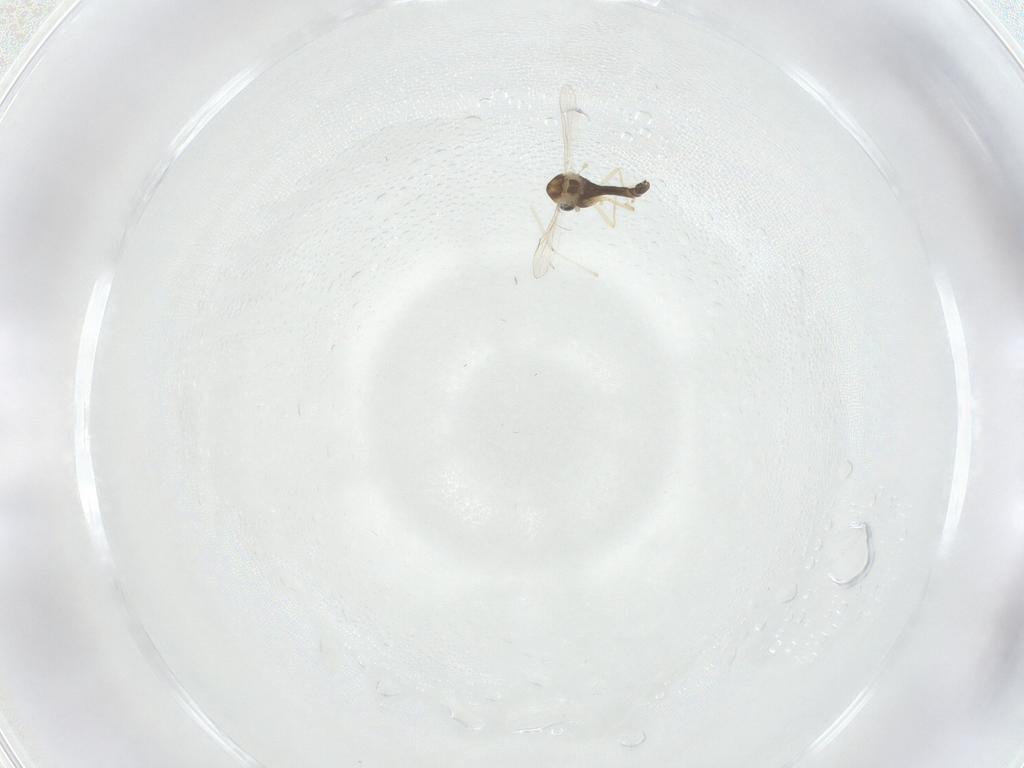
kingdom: Animalia
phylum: Arthropoda
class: Insecta
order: Diptera
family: Chironomidae
